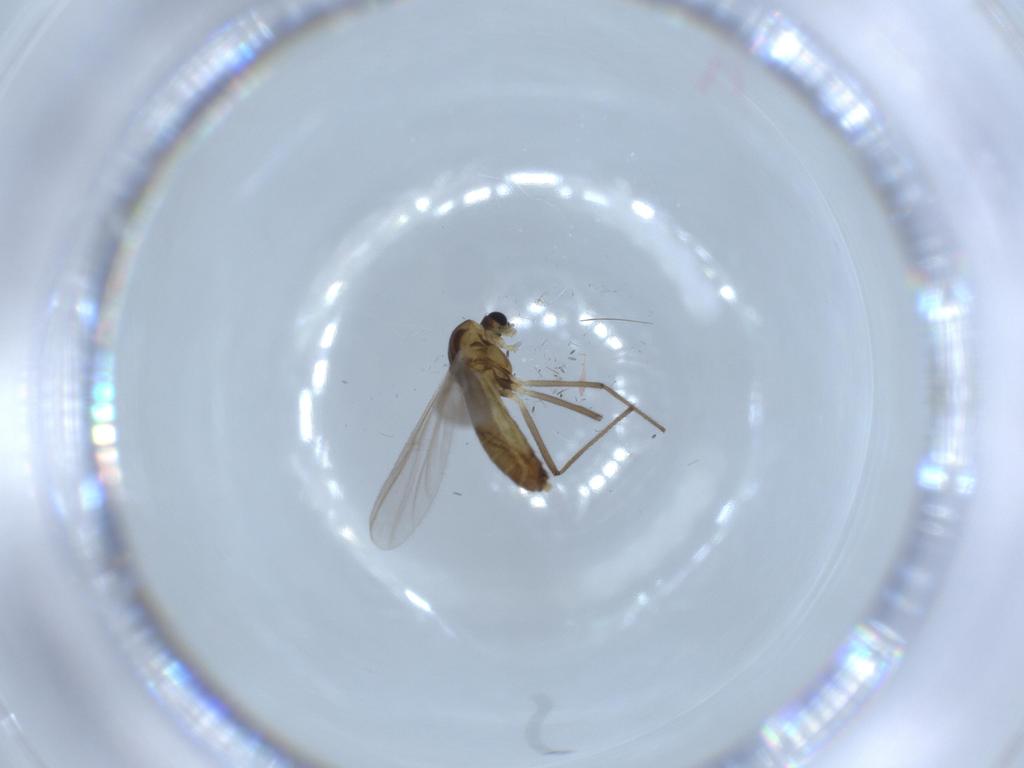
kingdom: Animalia
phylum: Arthropoda
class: Insecta
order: Diptera
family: Chironomidae
